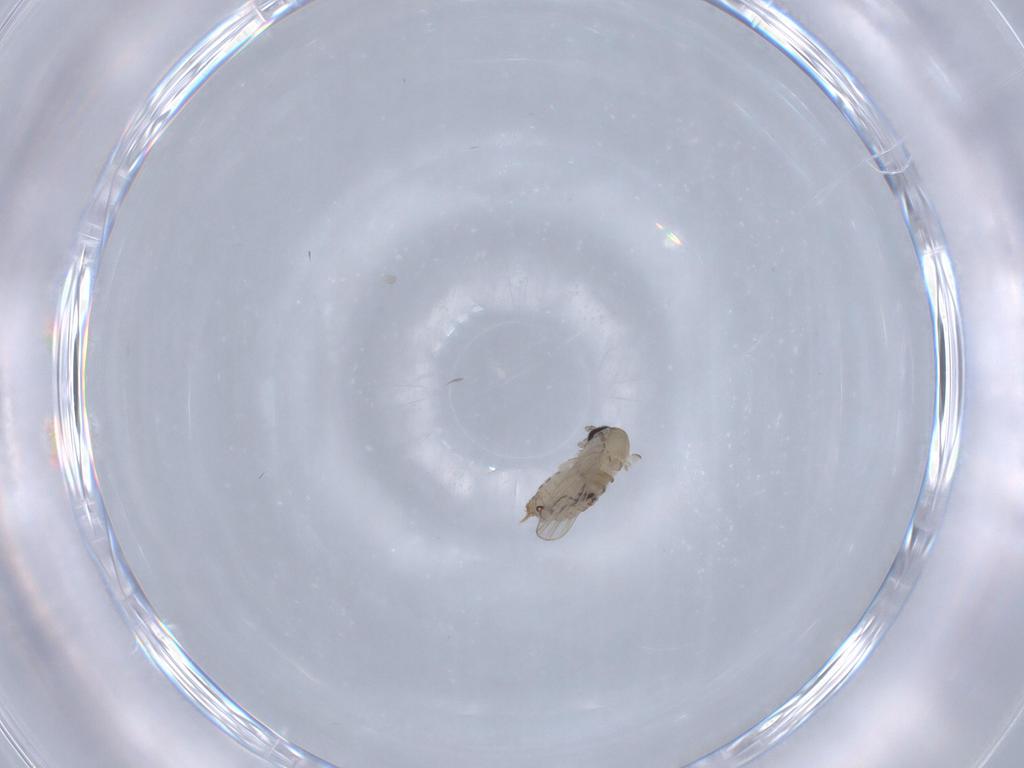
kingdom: Animalia
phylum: Arthropoda
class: Insecta
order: Diptera
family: Psychodidae
